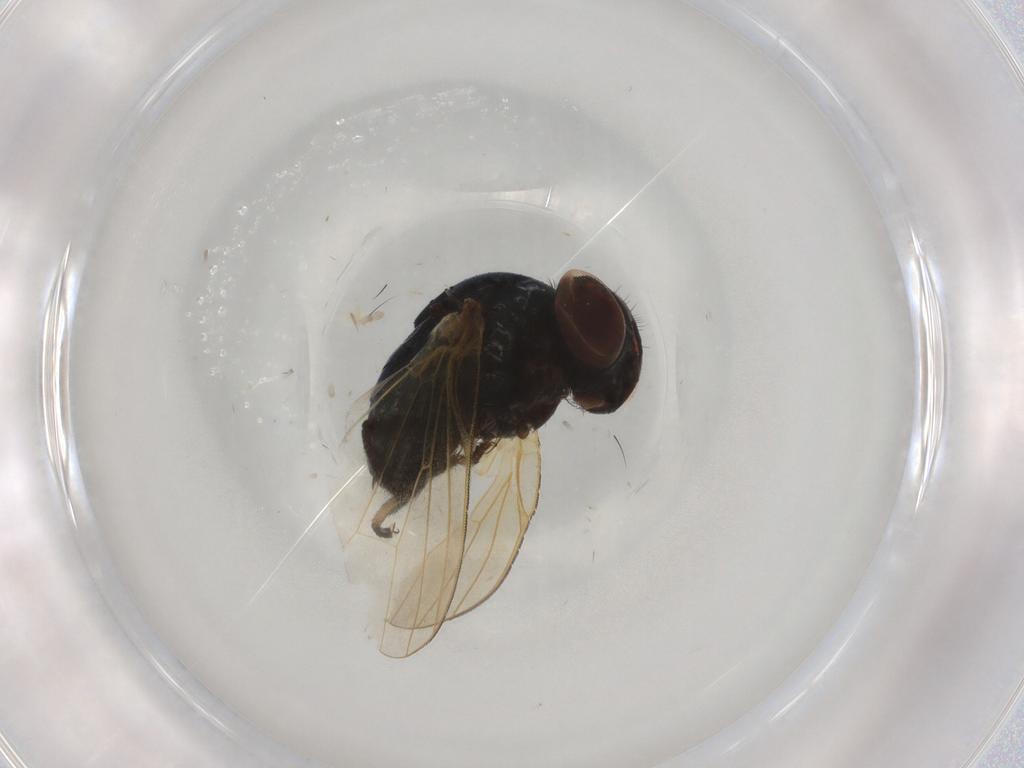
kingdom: Animalia
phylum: Arthropoda
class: Insecta
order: Diptera
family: Lonchaeidae
